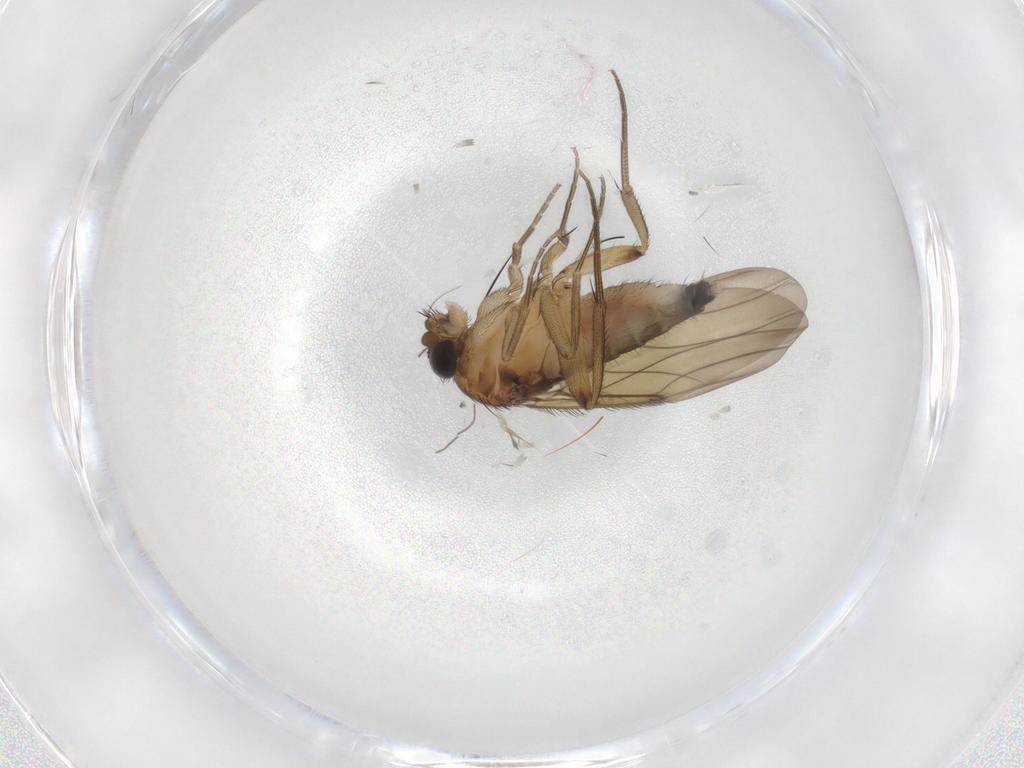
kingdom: Animalia
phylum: Arthropoda
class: Insecta
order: Diptera
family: Phoridae
